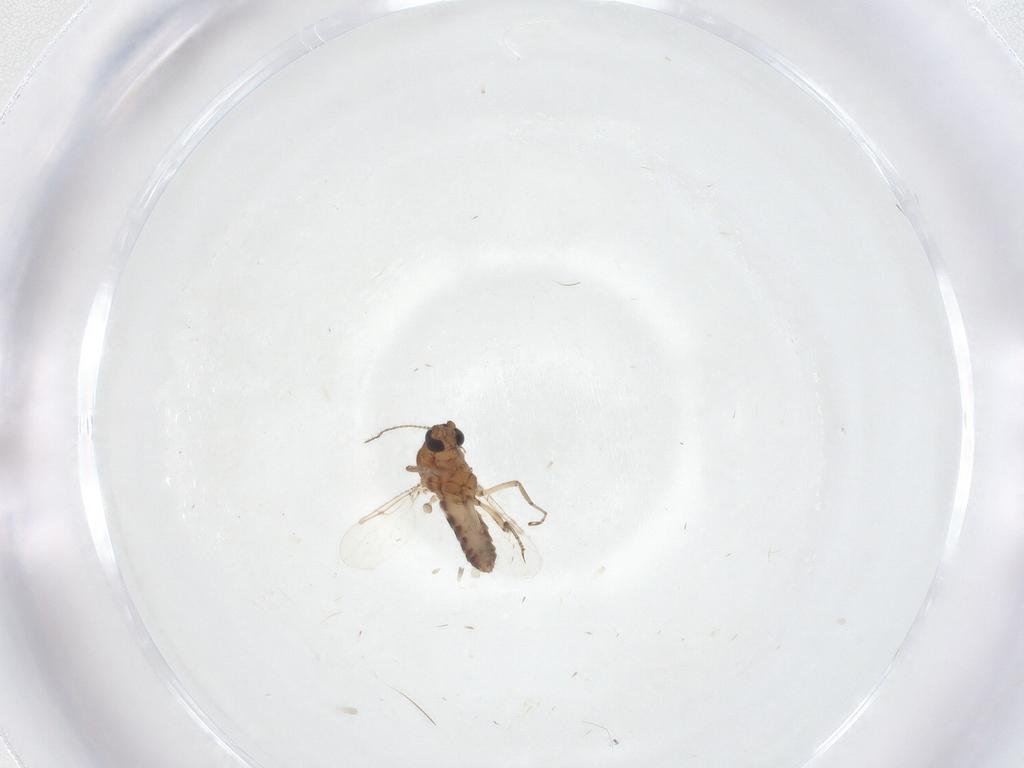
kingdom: Animalia
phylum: Arthropoda
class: Insecta
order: Diptera
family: Ceratopogonidae
